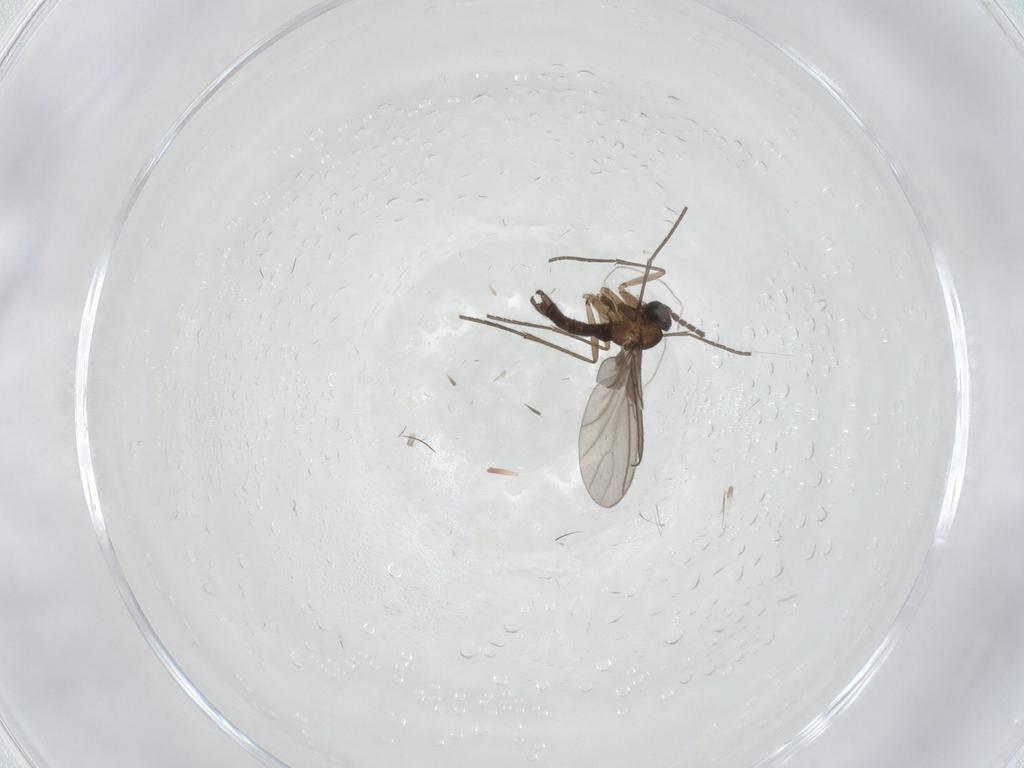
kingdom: Animalia
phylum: Arthropoda
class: Insecta
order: Diptera
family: Sciaridae
